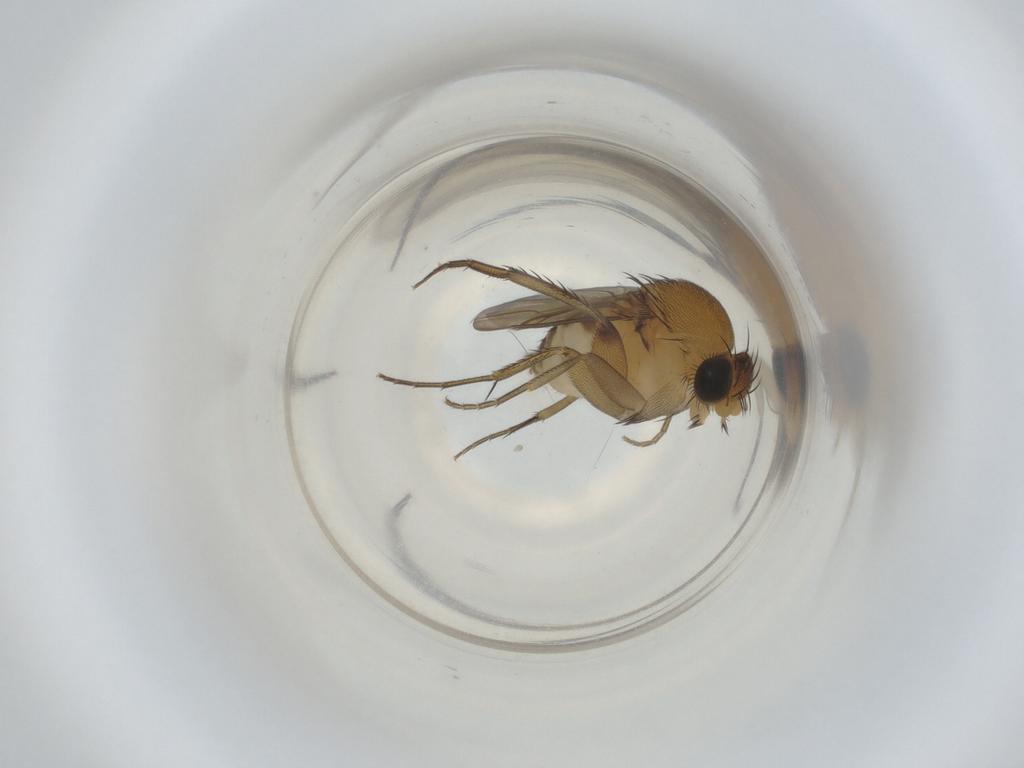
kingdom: Animalia
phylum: Arthropoda
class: Insecta
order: Diptera
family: Phoridae
